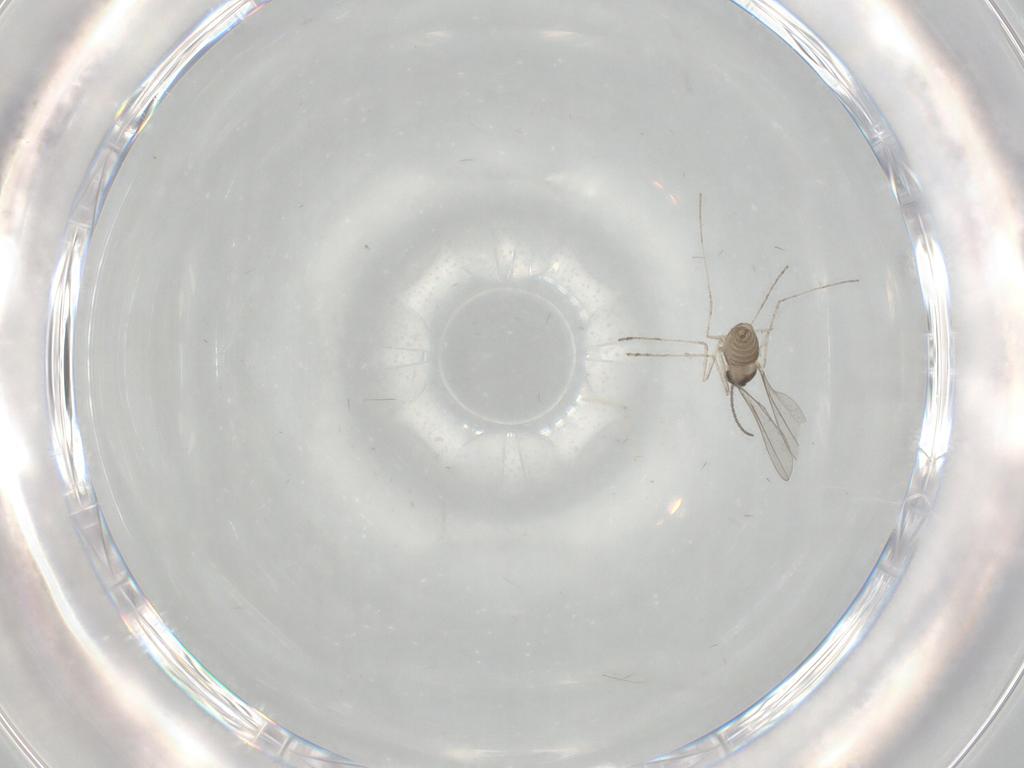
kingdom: Animalia
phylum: Arthropoda
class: Insecta
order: Diptera
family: Cecidomyiidae
